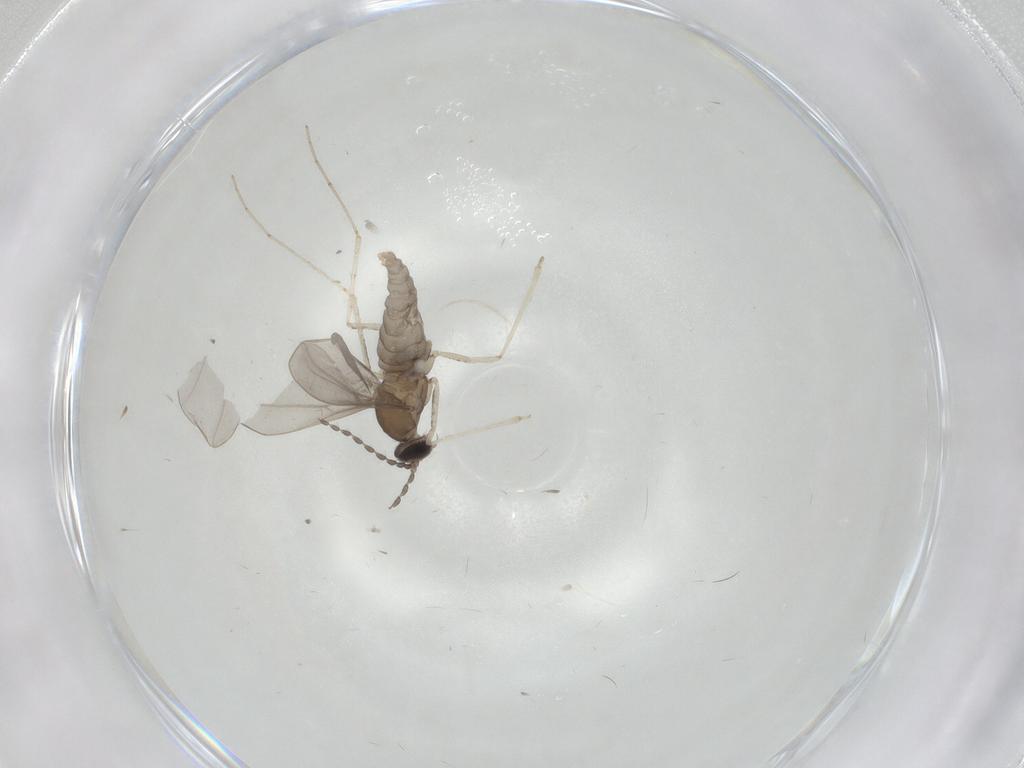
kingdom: Animalia
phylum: Arthropoda
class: Insecta
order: Diptera
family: Cecidomyiidae
